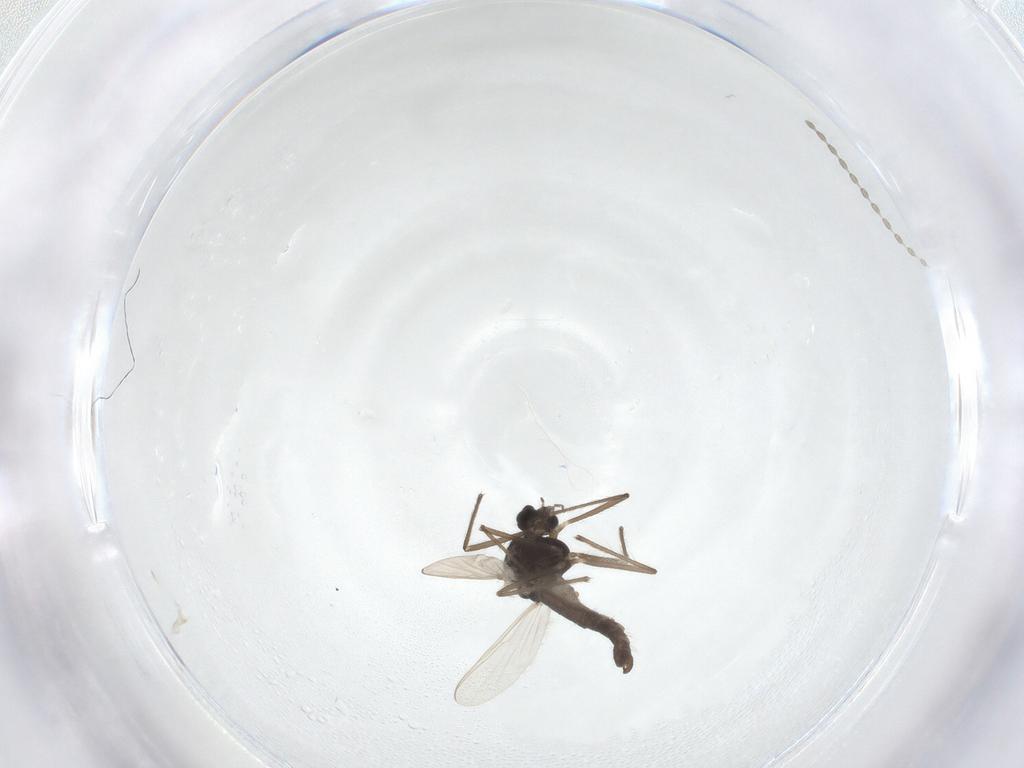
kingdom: Animalia
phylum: Arthropoda
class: Insecta
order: Diptera
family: Chironomidae
